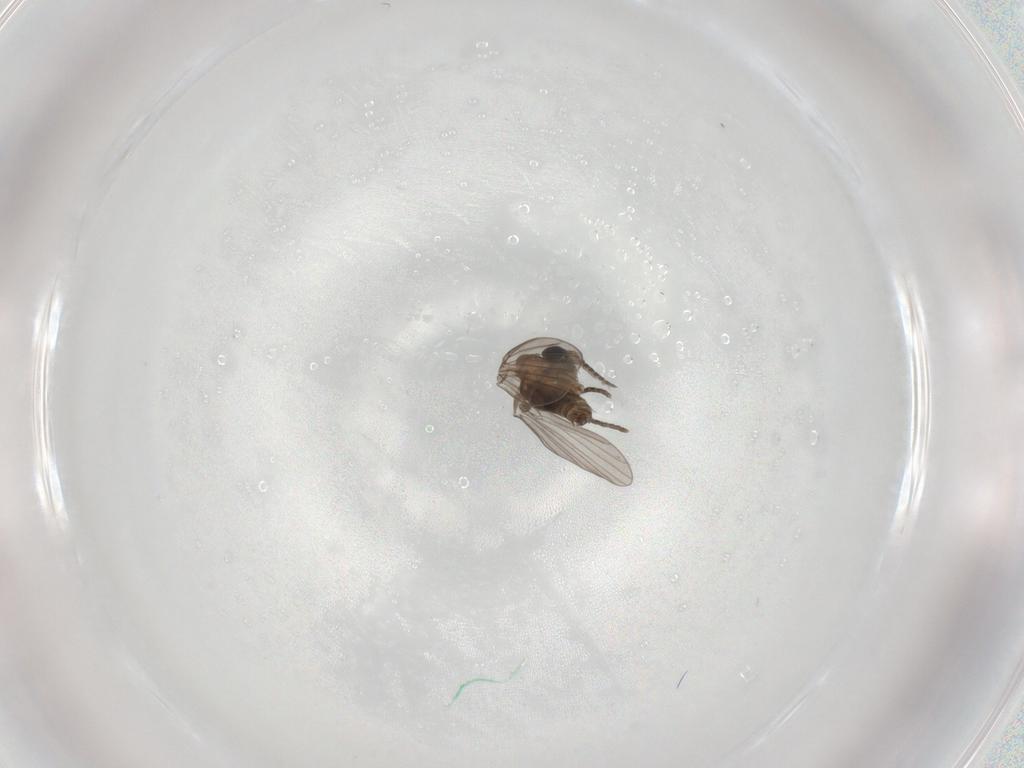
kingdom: Animalia
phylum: Arthropoda
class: Insecta
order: Diptera
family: Psychodidae
